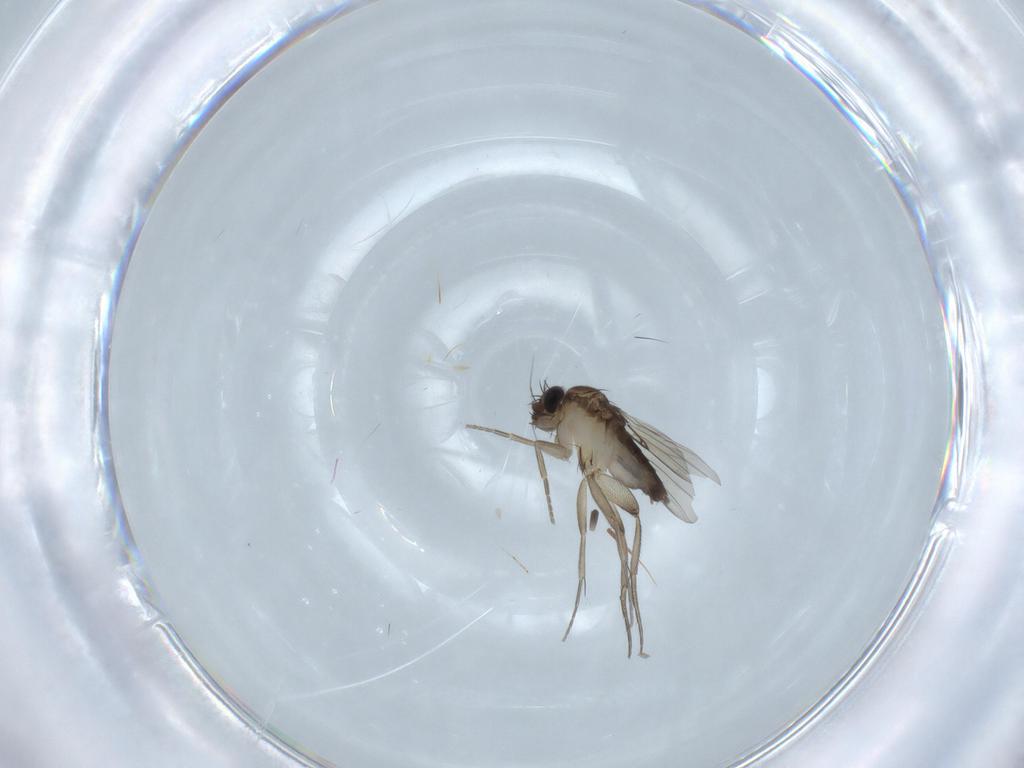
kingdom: Animalia
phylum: Arthropoda
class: Insecta
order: Diptera
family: Phoridae
